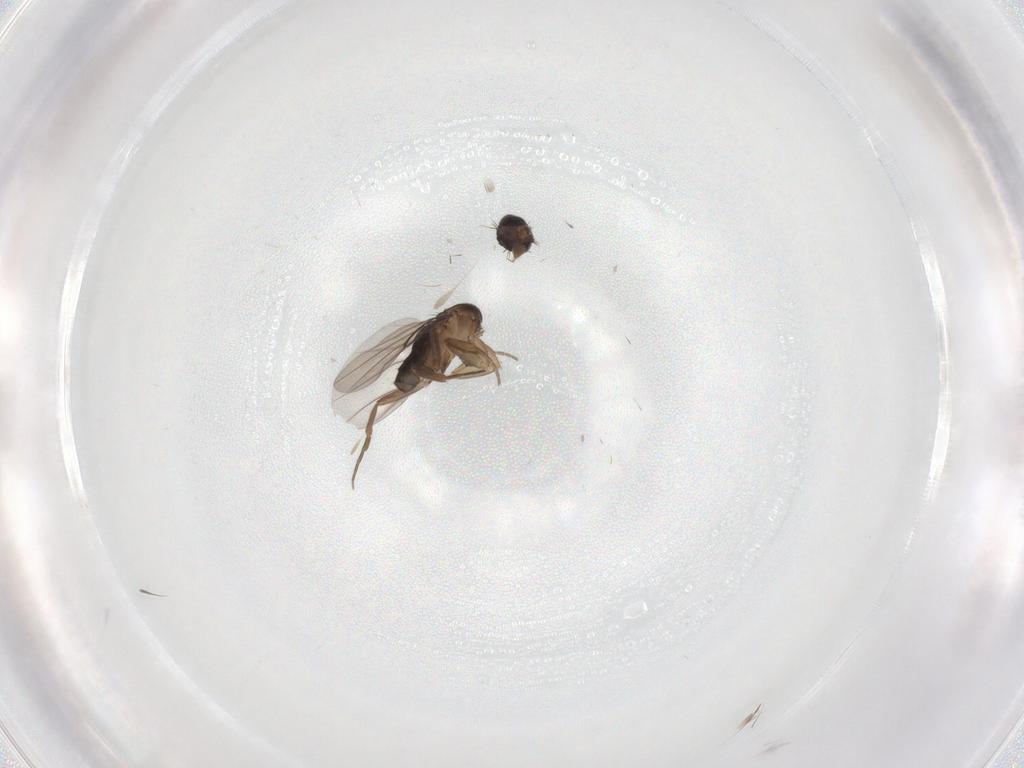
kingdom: Animalia
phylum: Arthropoda
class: Insecta
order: Diptera
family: Phoridae
